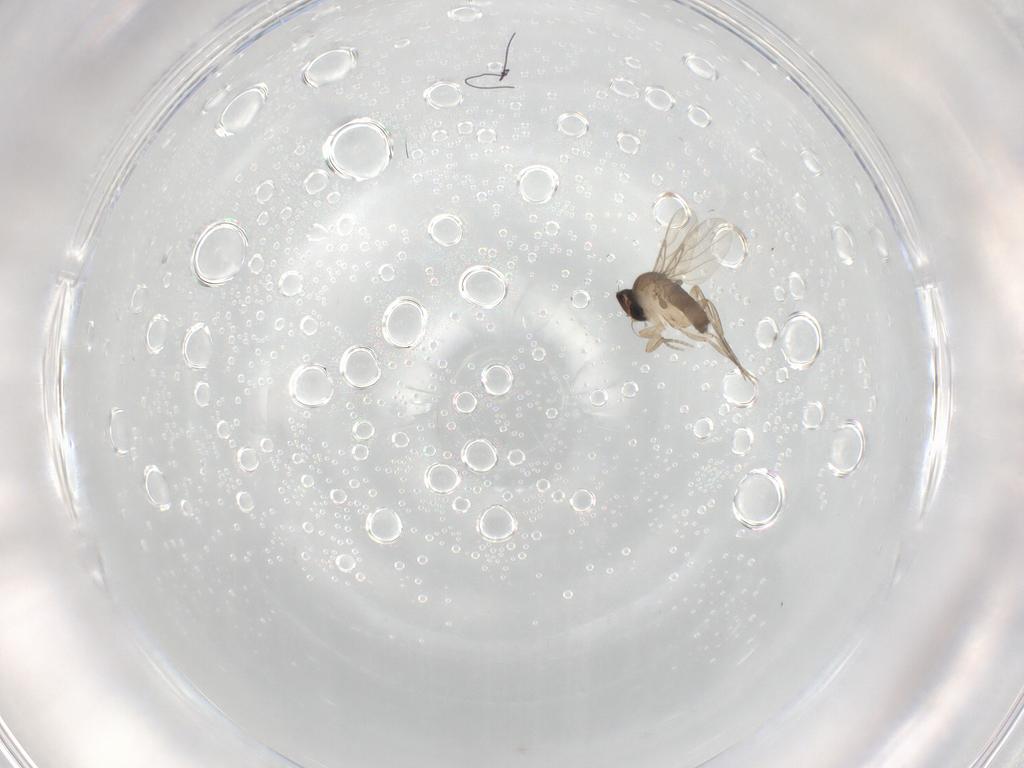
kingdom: Animalia
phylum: Arthropoda
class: Insecta
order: Diptera
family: Phoridae
